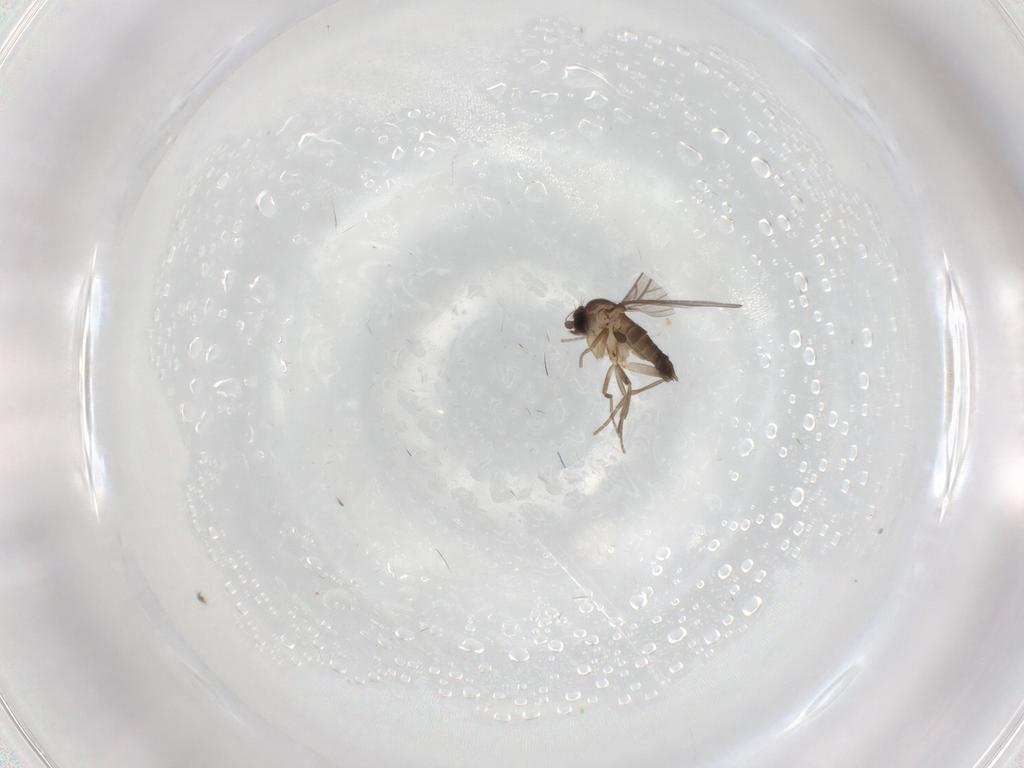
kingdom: Animalia
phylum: Arthropoda
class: Insecta
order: Diptera
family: Phoridae
